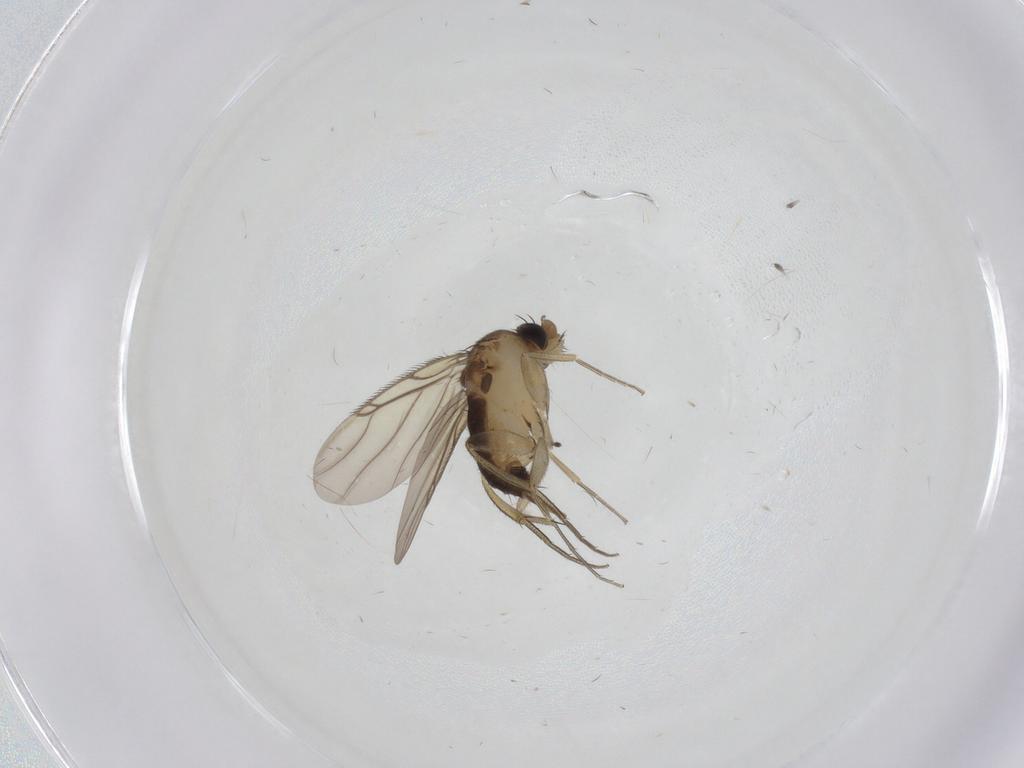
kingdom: Animalia
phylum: Arthropoda
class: Insecta
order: Diptera
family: Phoridae
